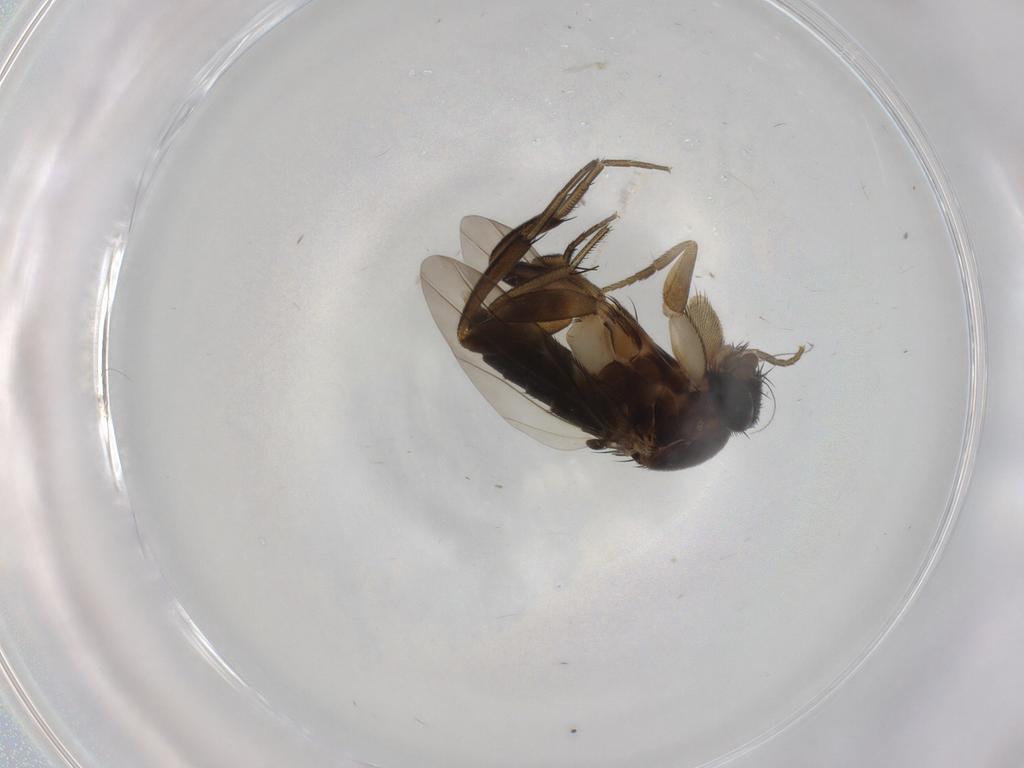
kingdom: Animalia
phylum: Arthropoda
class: Insecta
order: Diptera
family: Phoridae
